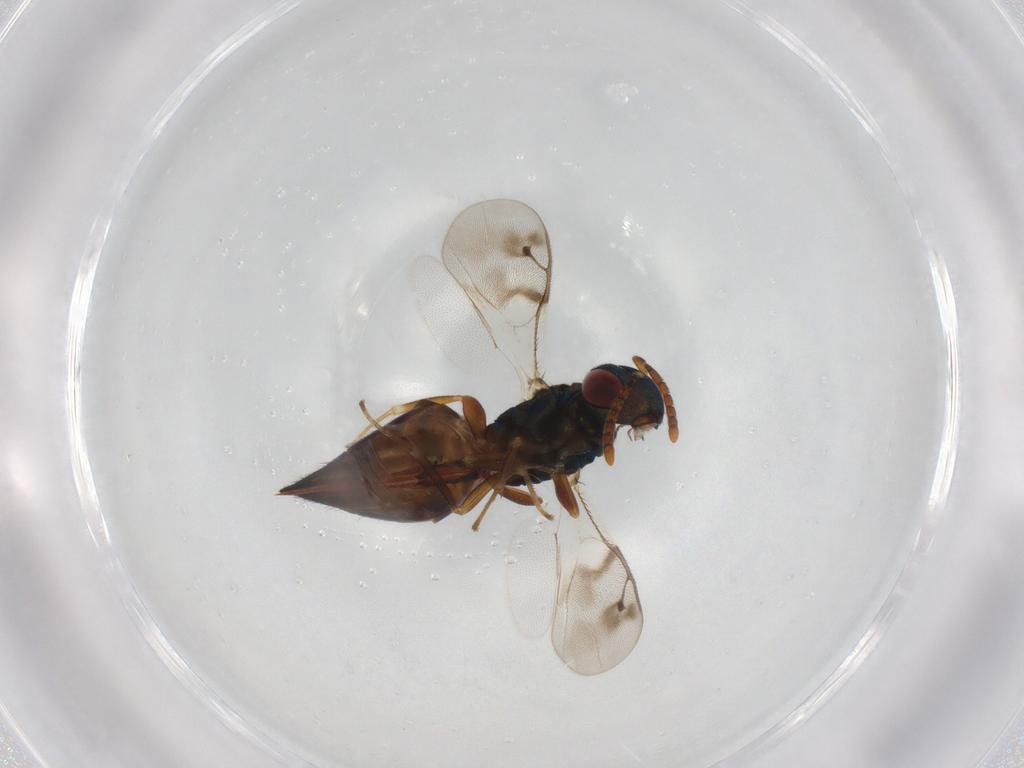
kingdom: Animalia
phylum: Arthropoda
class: Insecta
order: Hymenoptera
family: Pteromalidae
